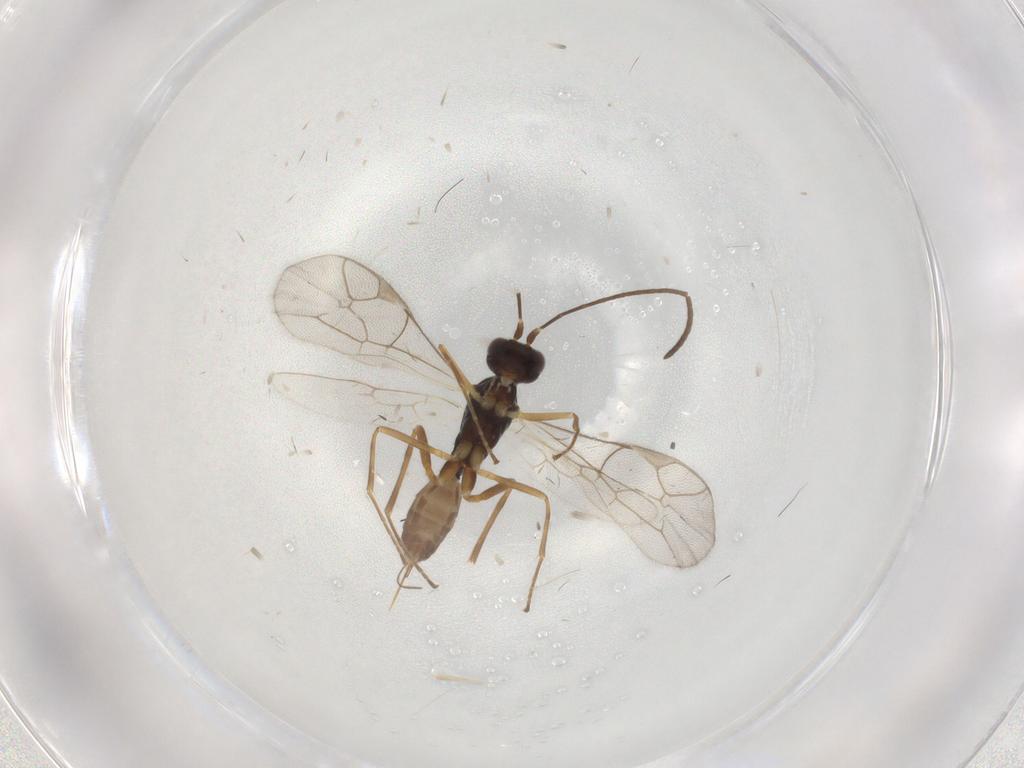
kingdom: Animalia
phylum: Arthropoda
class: Insecta
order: Hymenoptera
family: Ichneumonidae
